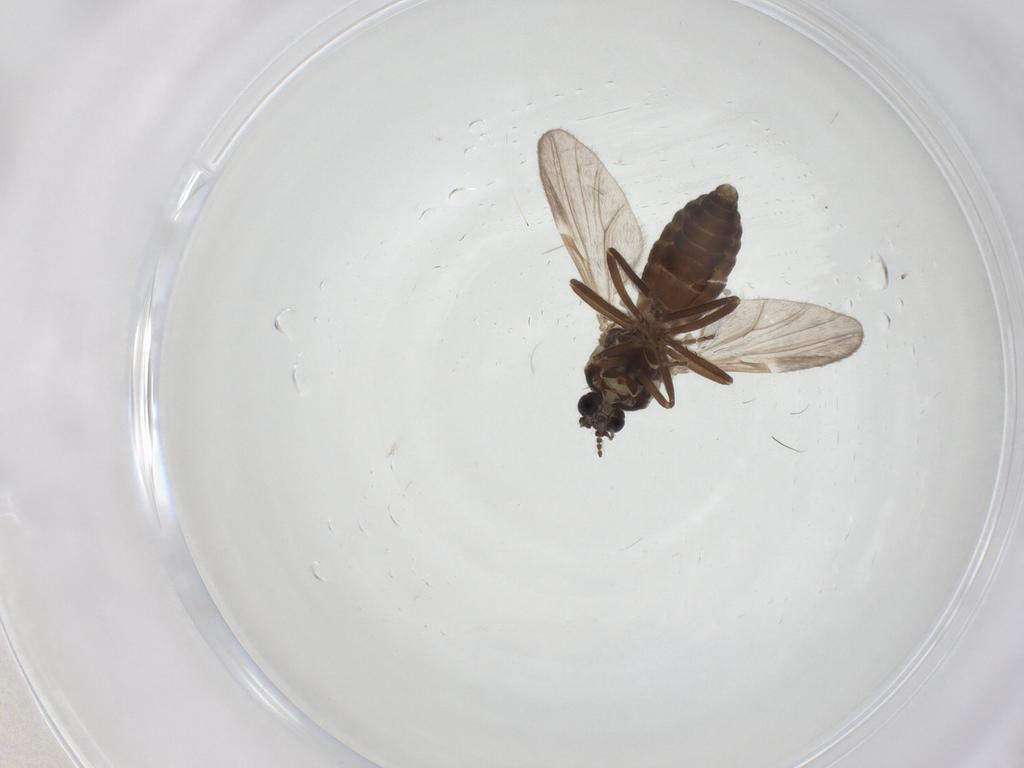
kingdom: Animalia
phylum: Arthropoda
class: Insecta
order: Diptera
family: Ceratopogonidae
